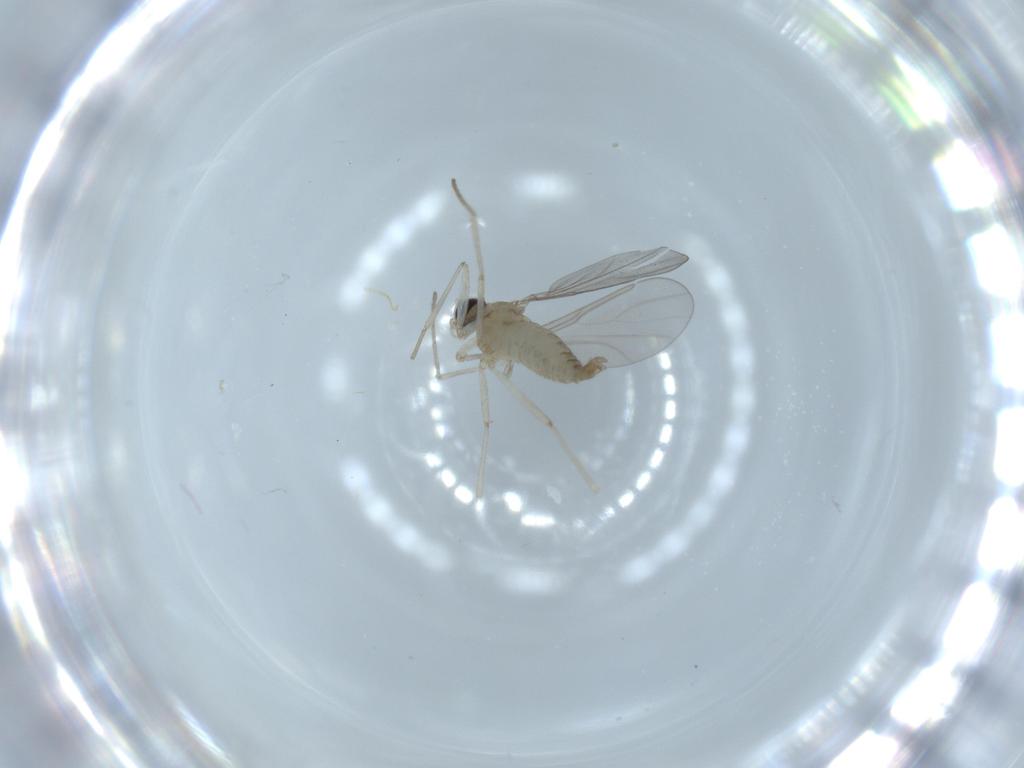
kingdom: Animalia
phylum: Arthropoda
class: Insecta
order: Diptera
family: Cecidomyiidae
